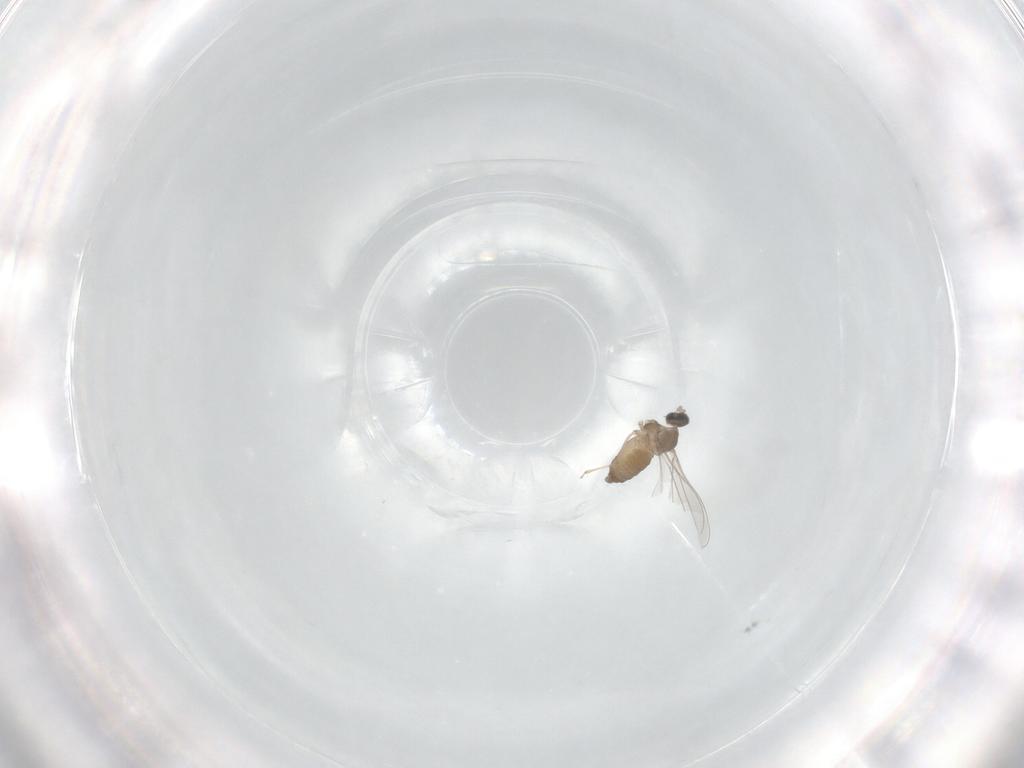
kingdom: Animalia
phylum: Arthropoda
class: Insecta
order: Diptera
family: Cecidomyiidae
